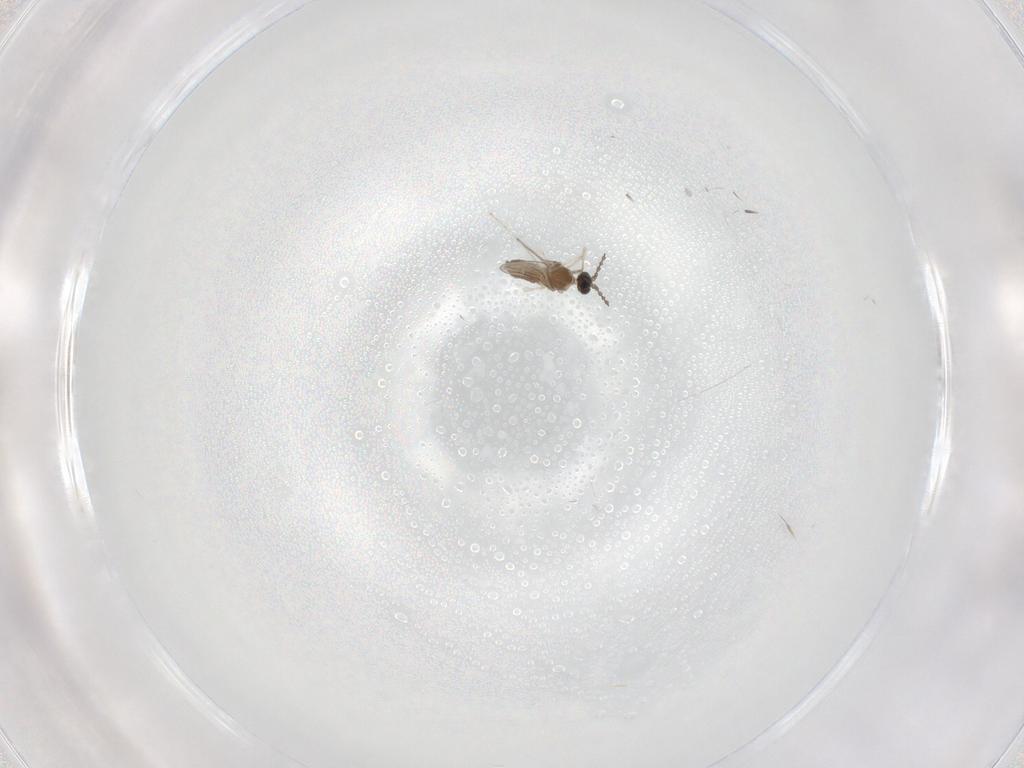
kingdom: Animalia
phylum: Arthropoda
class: Insecta
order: Diptera
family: Cecidomyiidae
